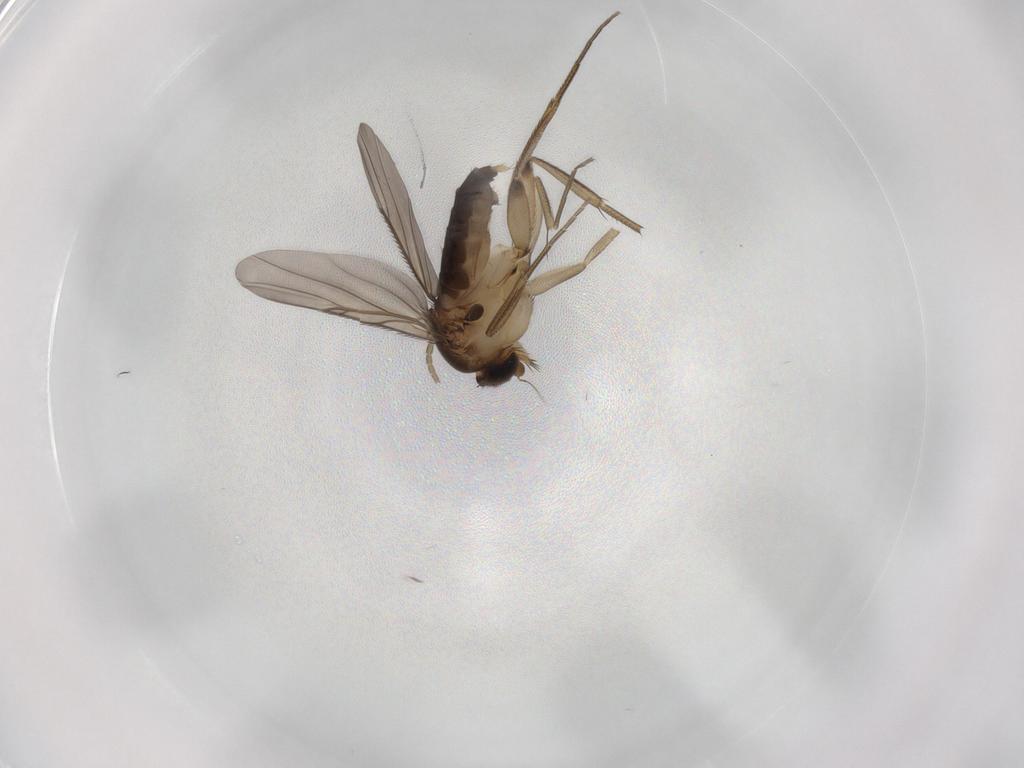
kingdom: Animalia
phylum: Arthropoda
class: Insecta
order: Diptera
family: Phoridae
